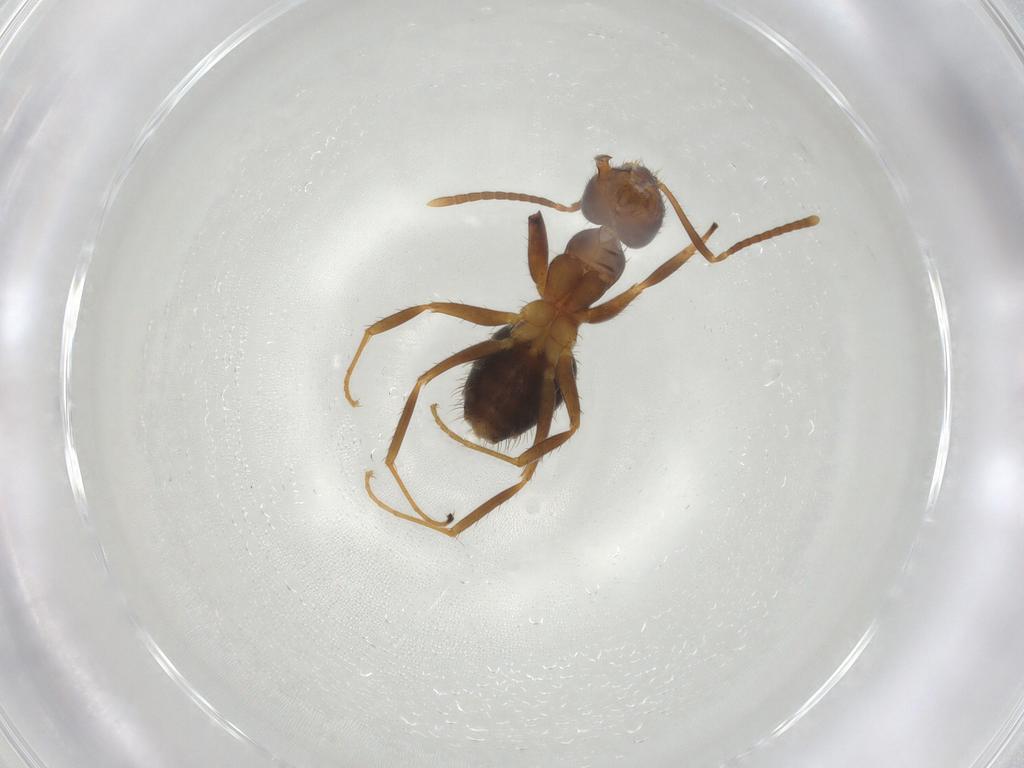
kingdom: Animalia
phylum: Arthropoda
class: Insecta
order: Hymenoptera
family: Formicidae
